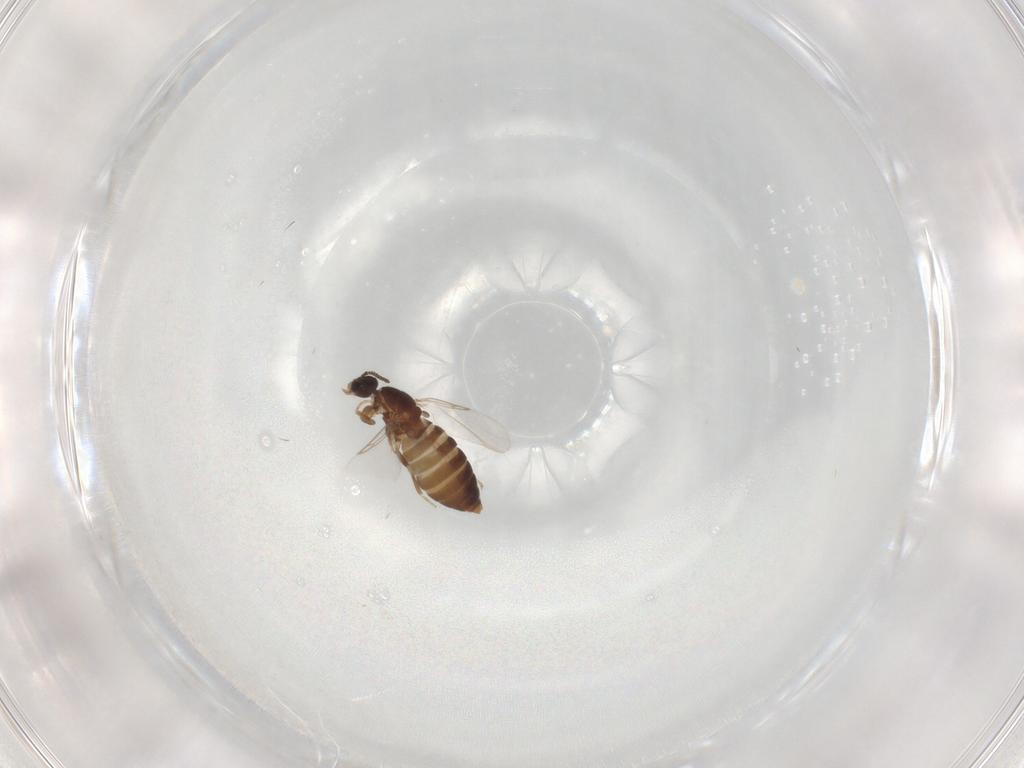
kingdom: Animalia
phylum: Arthropoda
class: Insecta
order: Diptera
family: Scatopsidae
